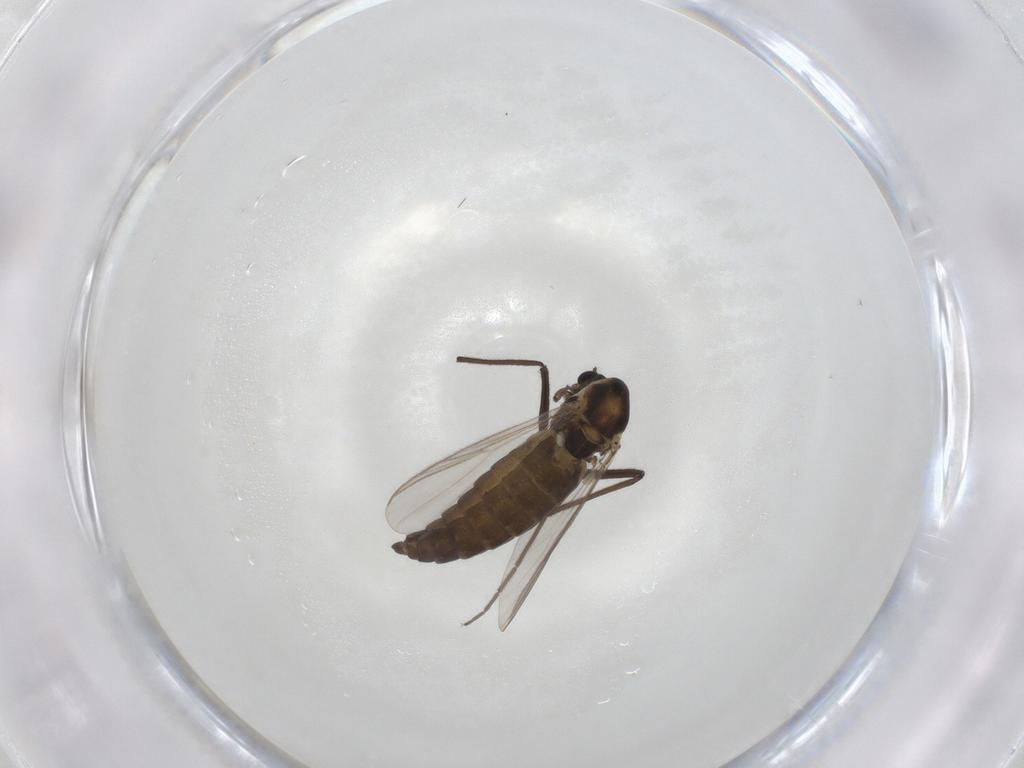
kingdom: Animalia
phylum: Arthropoda
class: Insecta
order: Diptera
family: Chironomidae
